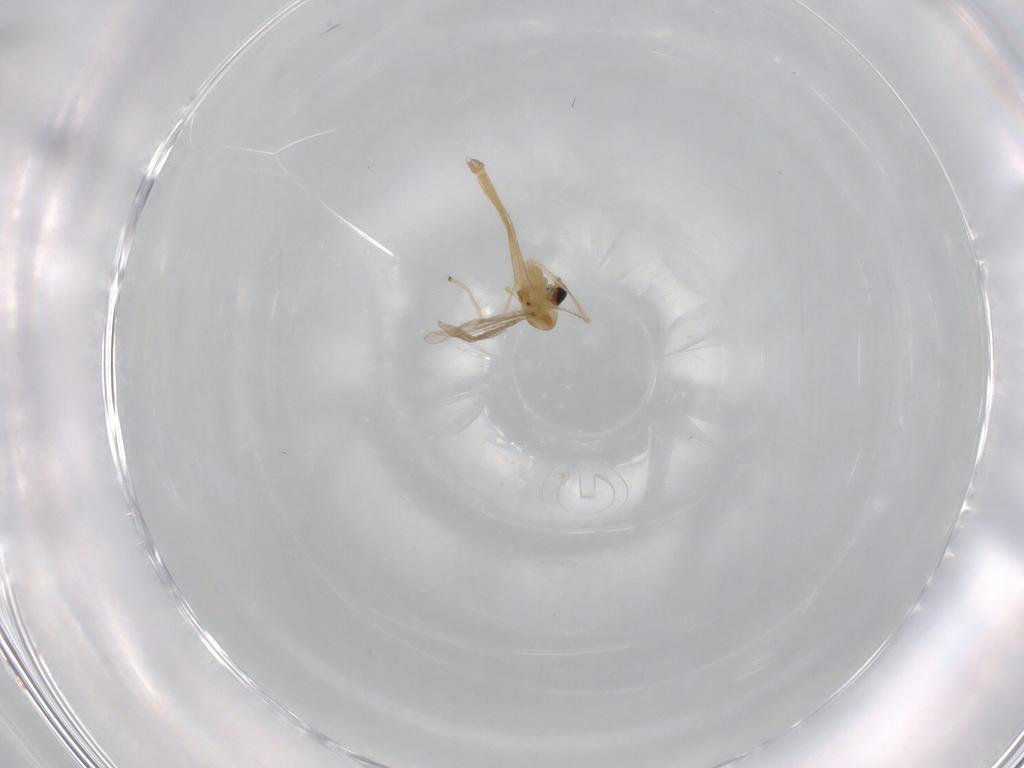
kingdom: Animalia
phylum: Arthropoda
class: Insecta
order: Diptera
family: Chironomidae
